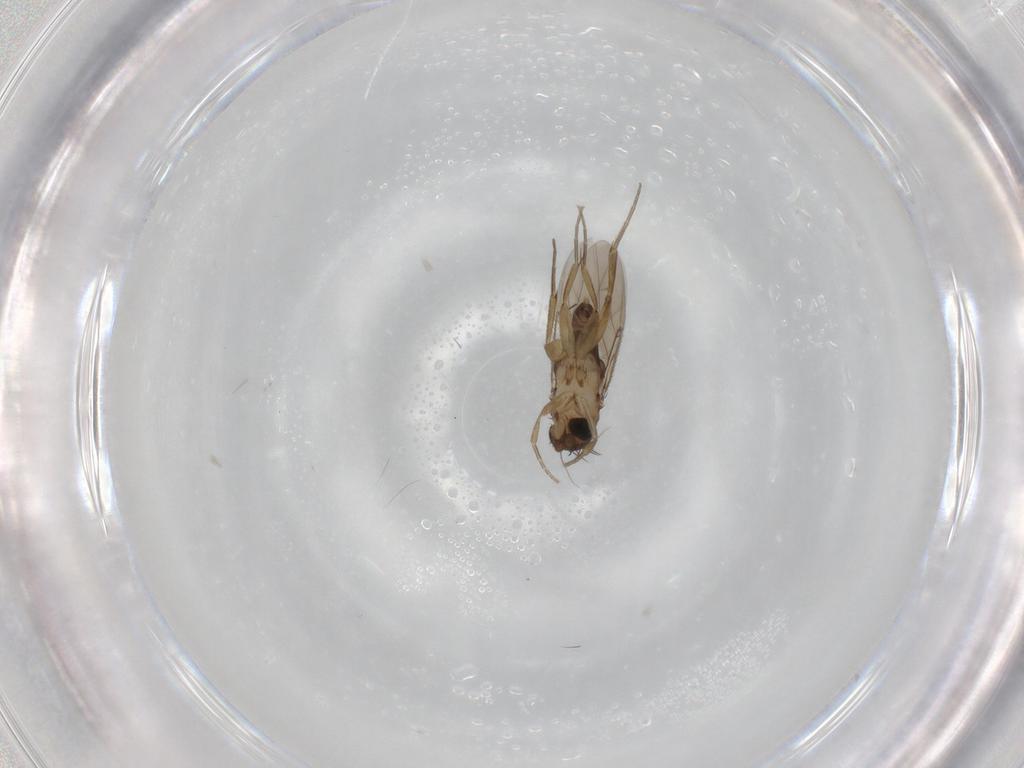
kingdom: Animalia
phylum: Arthropoda
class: Insecta
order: Diptera
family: Phoridae
